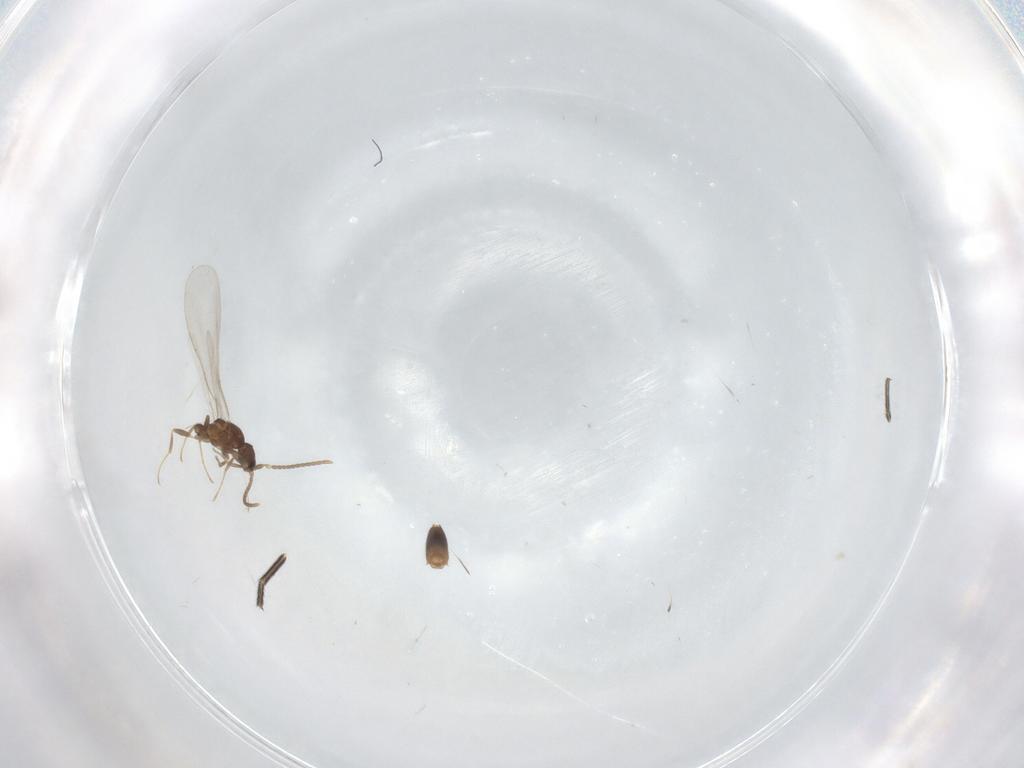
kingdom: Animalia
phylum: Arthropoda
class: Insecta
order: Hymenoptera
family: Formicidae
